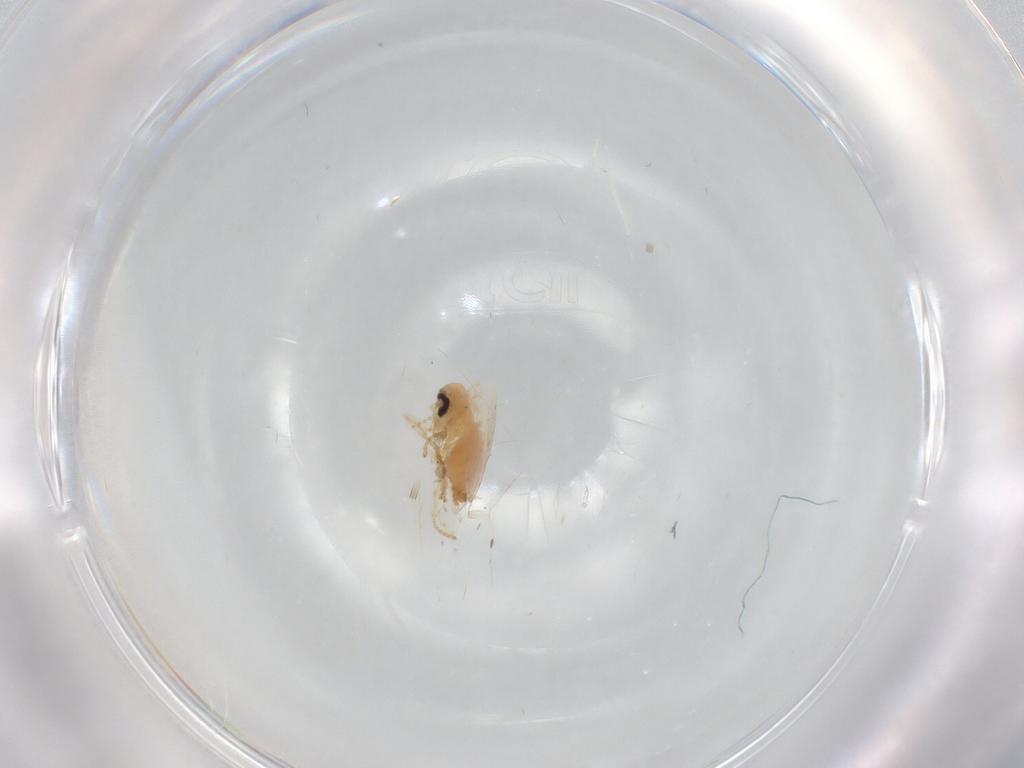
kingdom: Animalia
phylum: Arthropoda
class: Insecta
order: Diptera
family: Psychodidae
